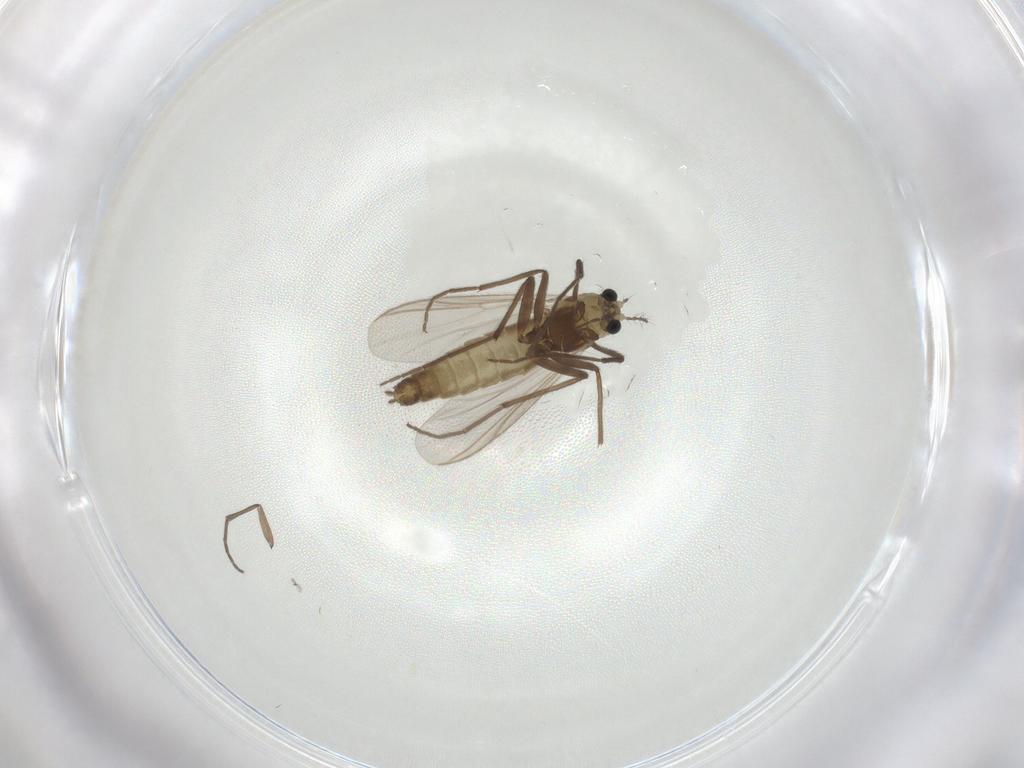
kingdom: Animalia
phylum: Arthropoda
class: Insecta
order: Diptera
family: Chironomidae
